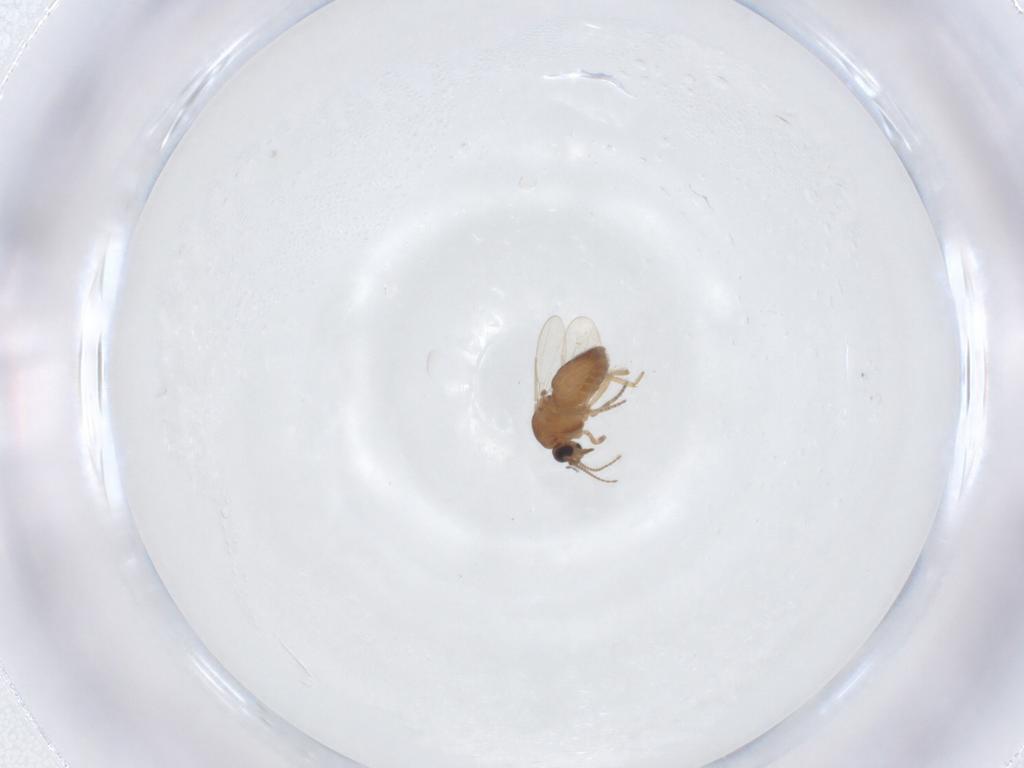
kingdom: Animalia
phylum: Arthropoda
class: Insecta
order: Diptera
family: Ceratopogonidae
